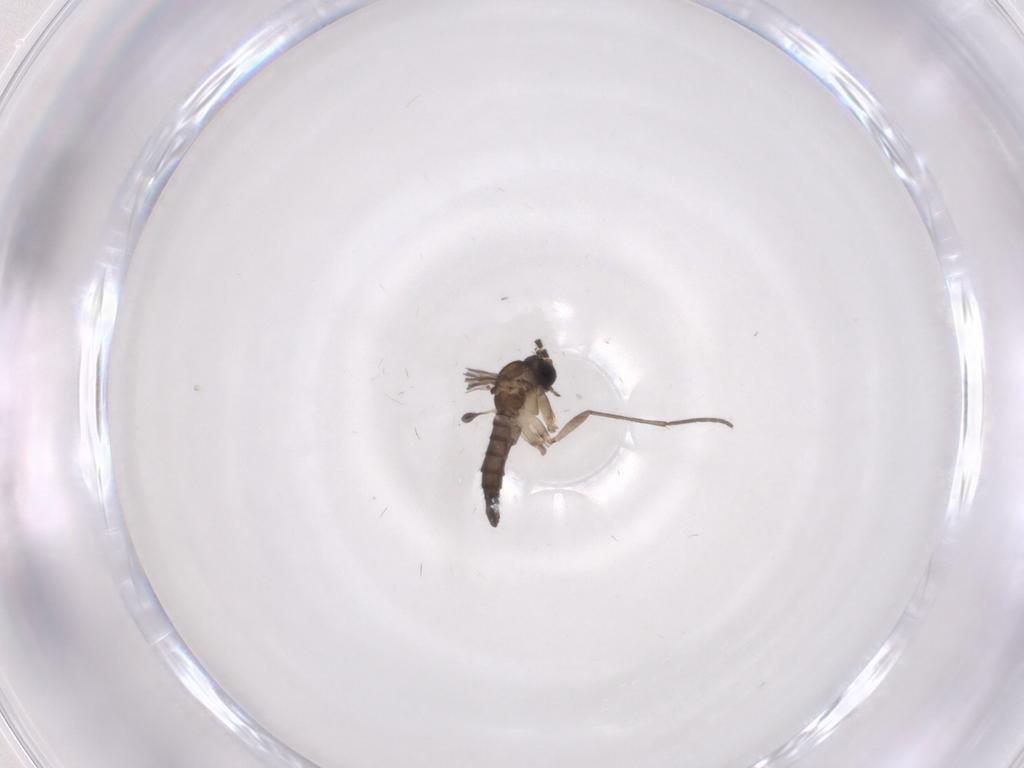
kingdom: Animalia
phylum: Arthropoda
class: Insecta
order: Diptera
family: Sciaridae
